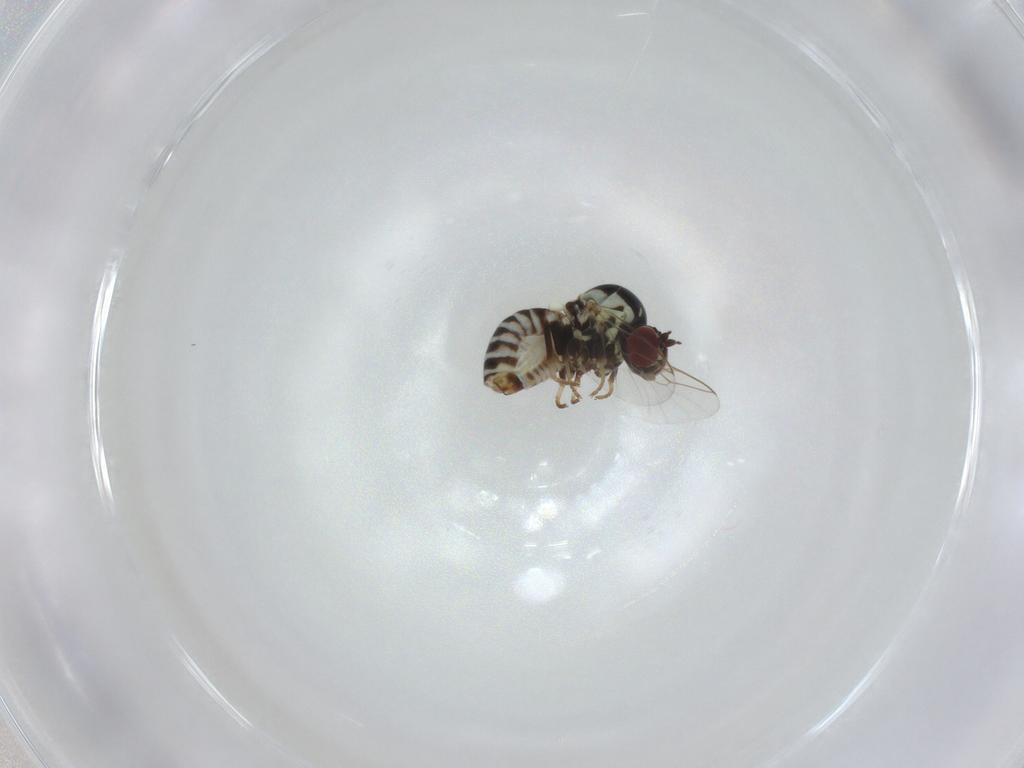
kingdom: Animalia
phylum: Arthropoda
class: Insecta
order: Diptera
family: Bombyliidae
